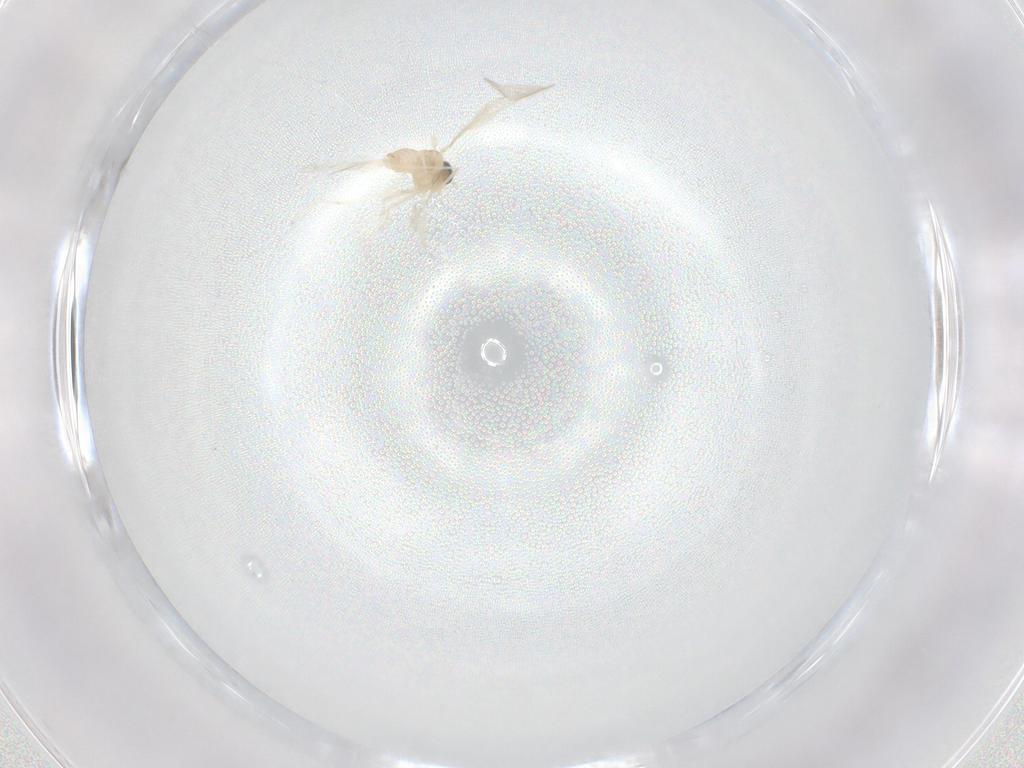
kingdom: Animalia
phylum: Arthropoda
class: Insecta
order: Diptera
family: Cecidomyiidae
